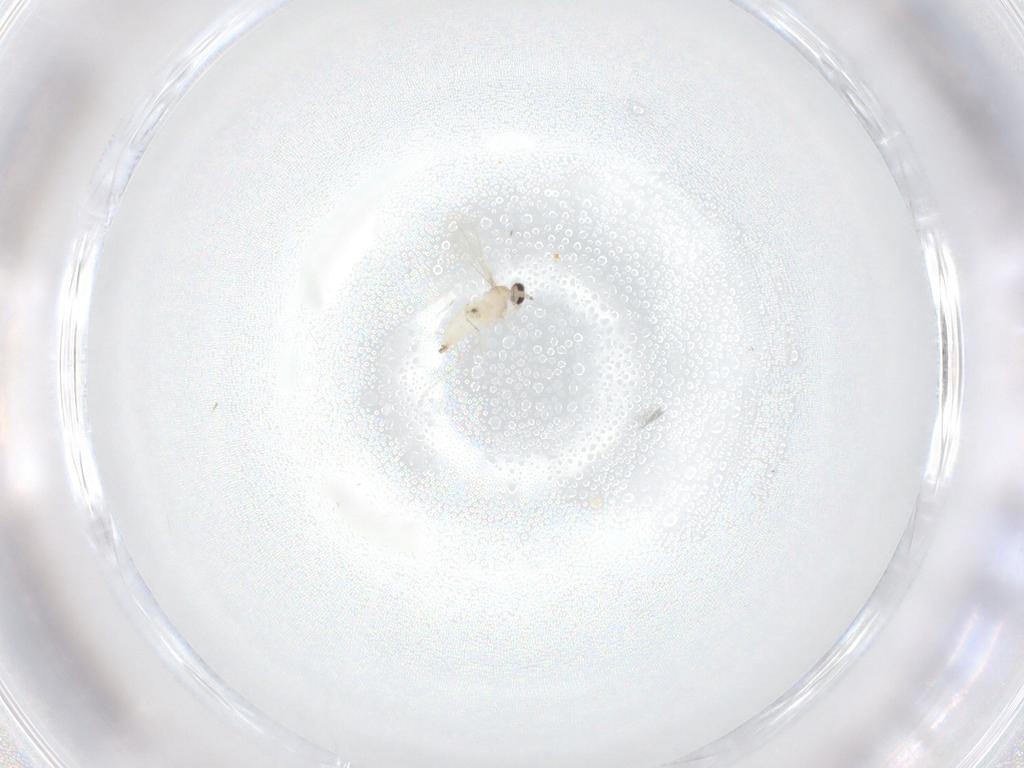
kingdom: Animalia
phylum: Arthropoda
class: Insecta
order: Diptera
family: Cecidomyiidae
